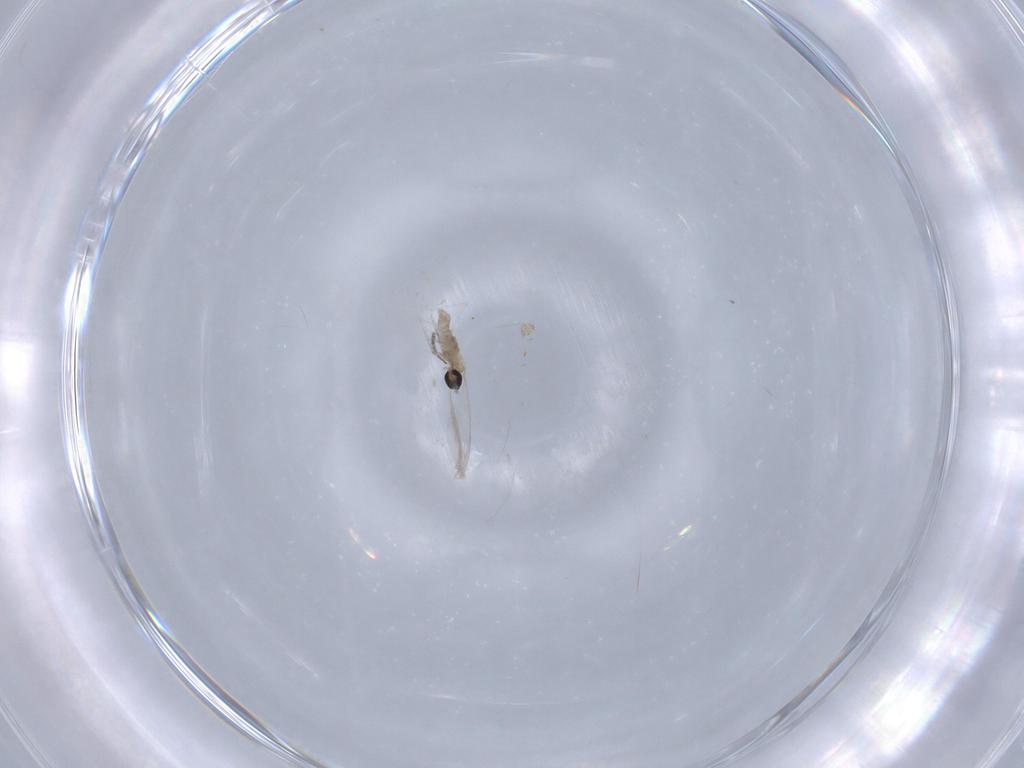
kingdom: Animalia
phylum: Arthropoda
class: Insecta
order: Diptera
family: Cecidomyiidae
